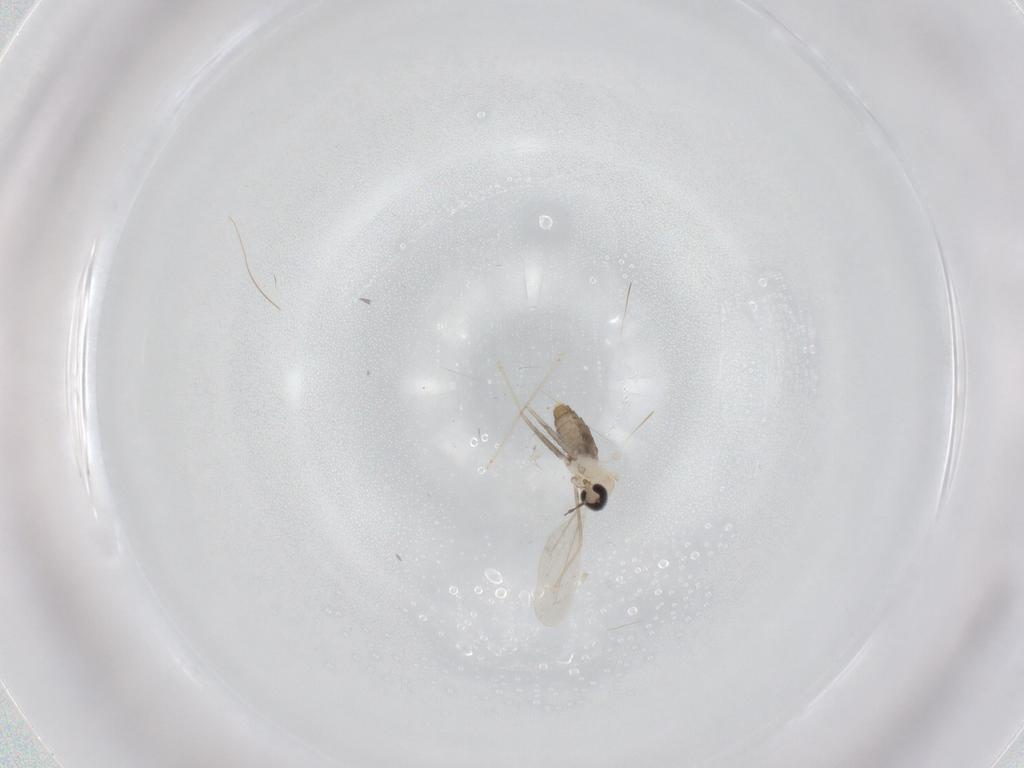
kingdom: Animalia
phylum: Arthropoda
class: Insecta
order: Diptera
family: Cecidomyiidae
